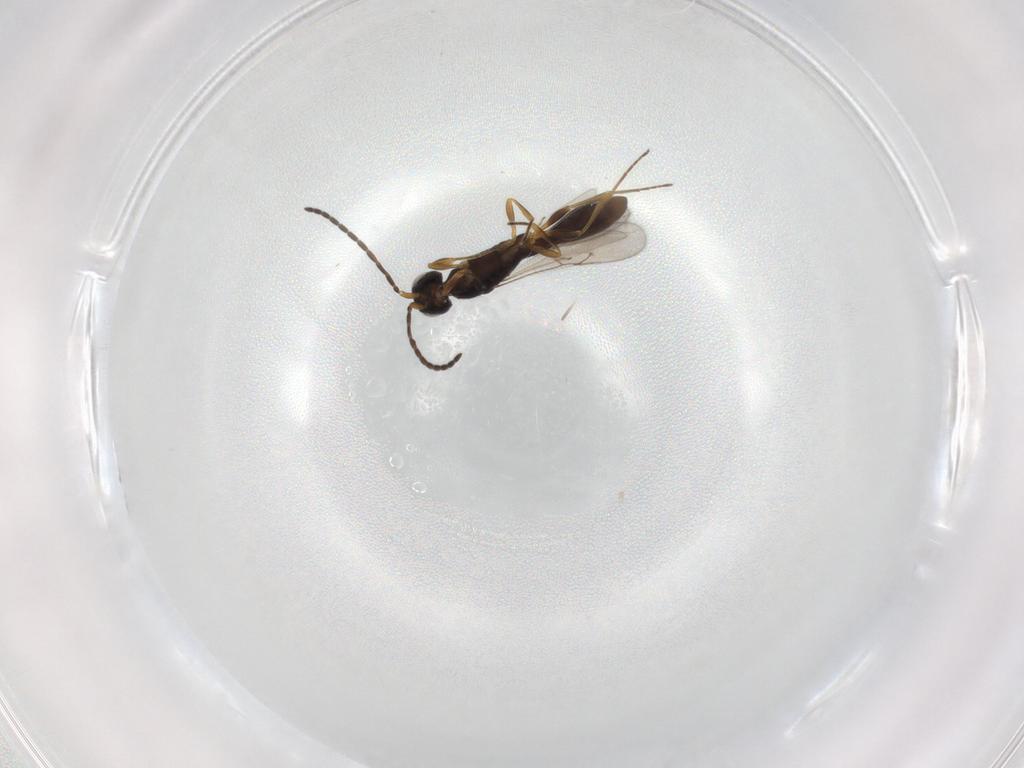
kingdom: Animalia
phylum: Arthropoda
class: Insecta
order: Hymenoptera
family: Scelionidae
